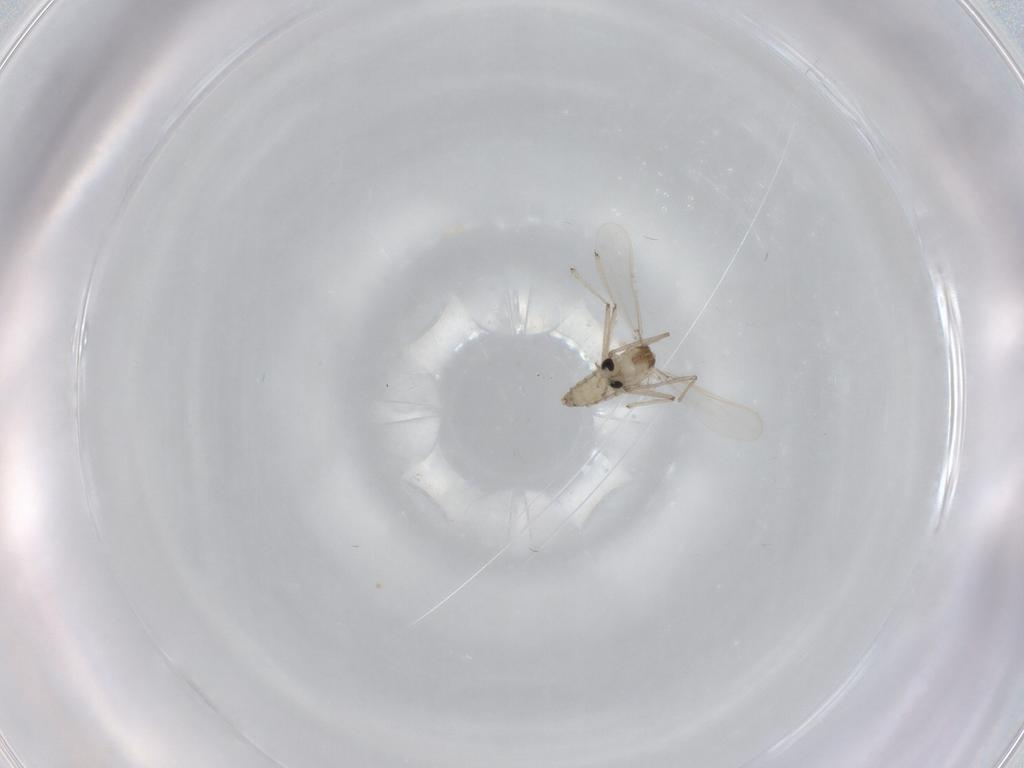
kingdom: Animalia
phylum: Arthropoda
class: Insecta
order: Diptera
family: Chironomidae
